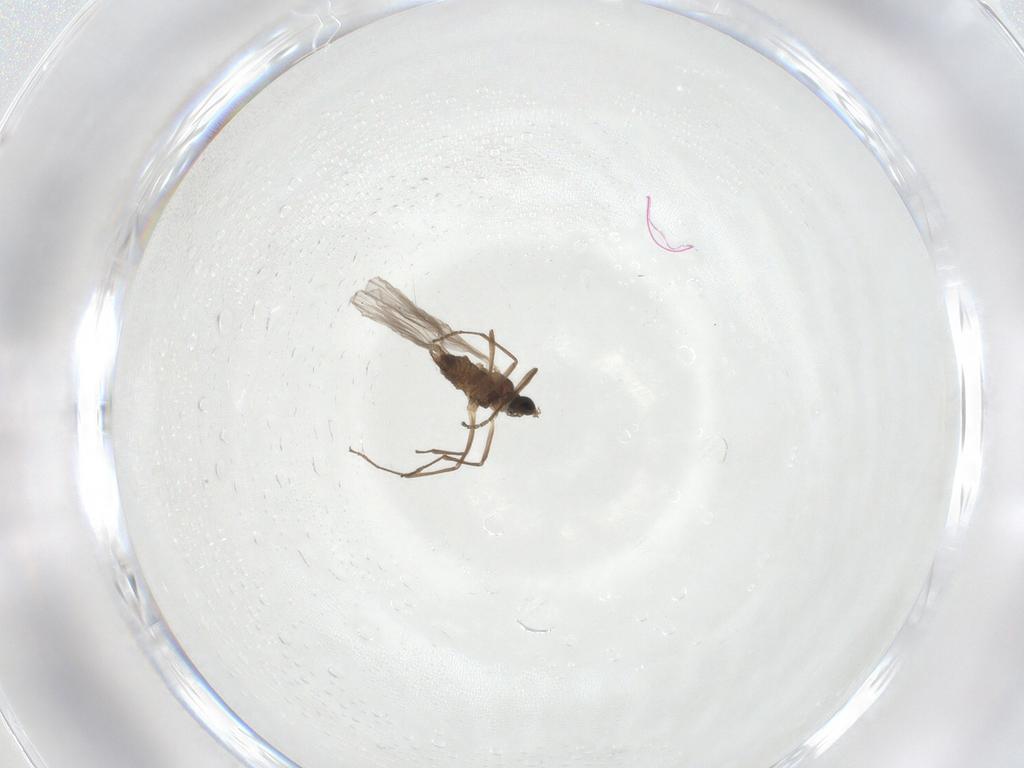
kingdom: Animalia
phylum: Arthropoda
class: Insecta
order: Diptera
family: Cecidomyiidae
